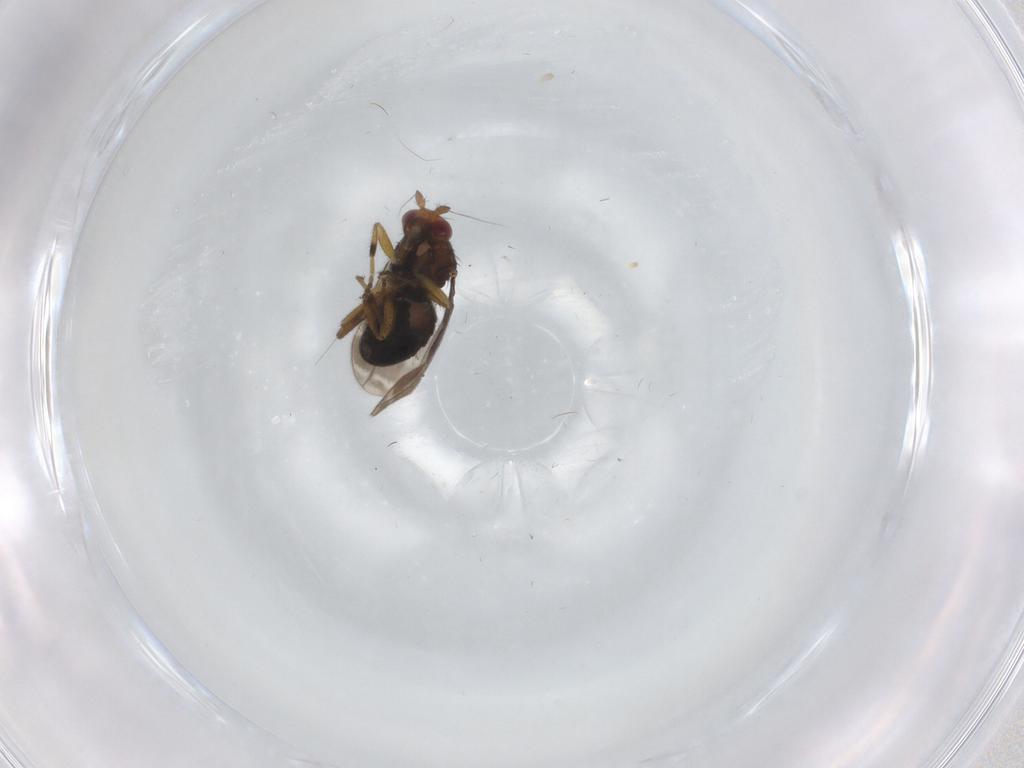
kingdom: Animalia
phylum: Arthropoda
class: Insecta
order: Diptera
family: Sphaeroceridae
